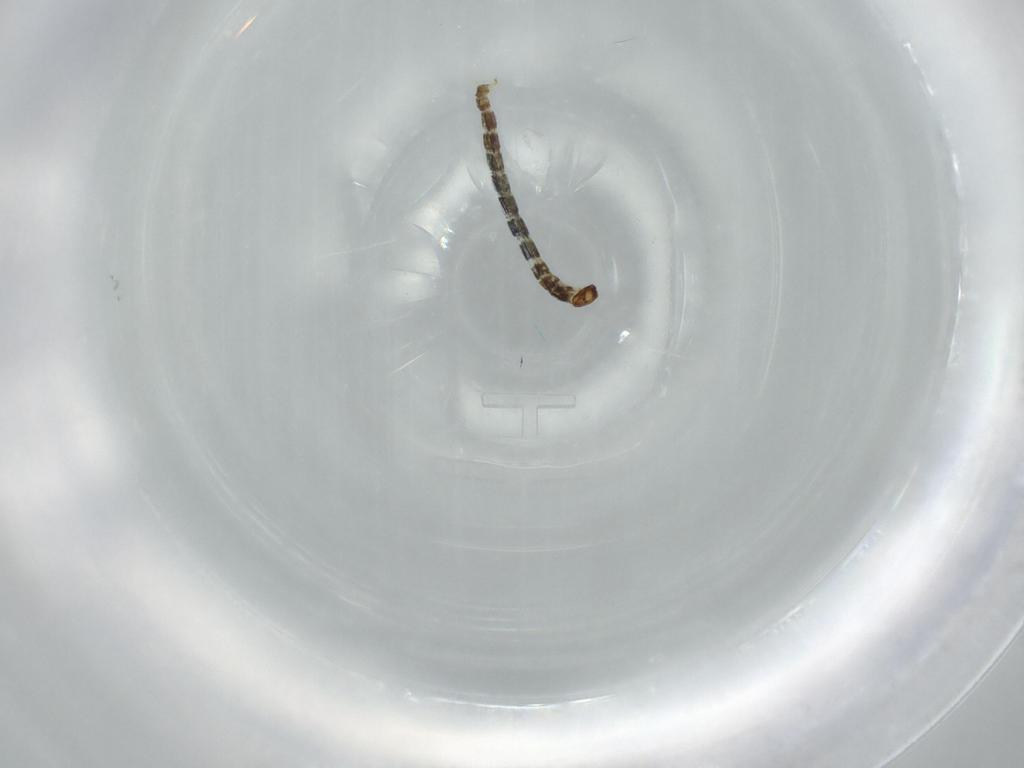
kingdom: Animalia
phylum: Arthropoda
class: Insecta
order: Diptera
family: Chironomidae
